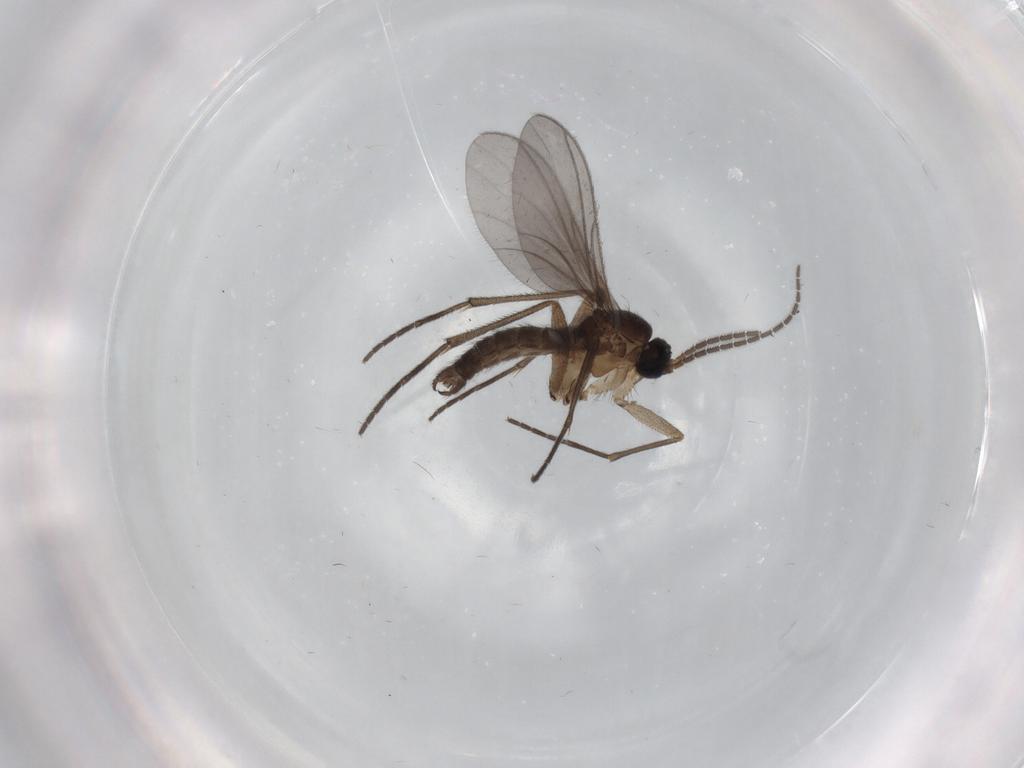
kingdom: Animalia
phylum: Arthropoda
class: Insecta
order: Diptera
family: Sciaridae
